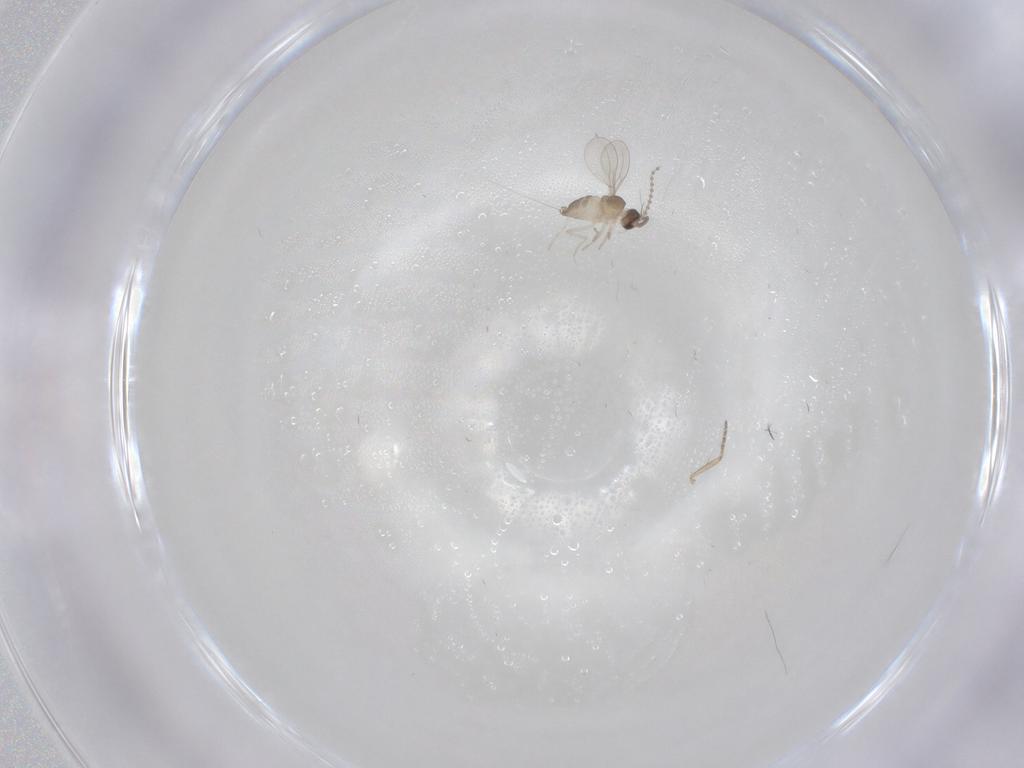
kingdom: Animalia
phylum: Arthropoda
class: Insecta
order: Diptera
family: Ceratopogonidae
